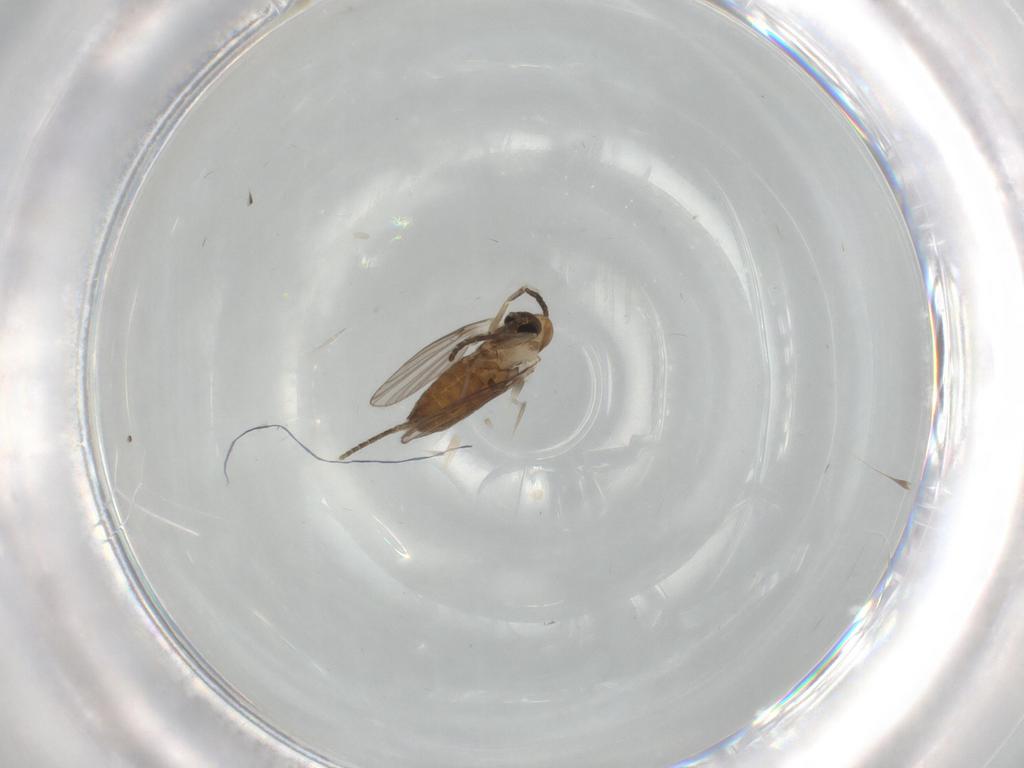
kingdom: Animalia
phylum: Arthropoda
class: Insecta
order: Diptera
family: Psychodidae
